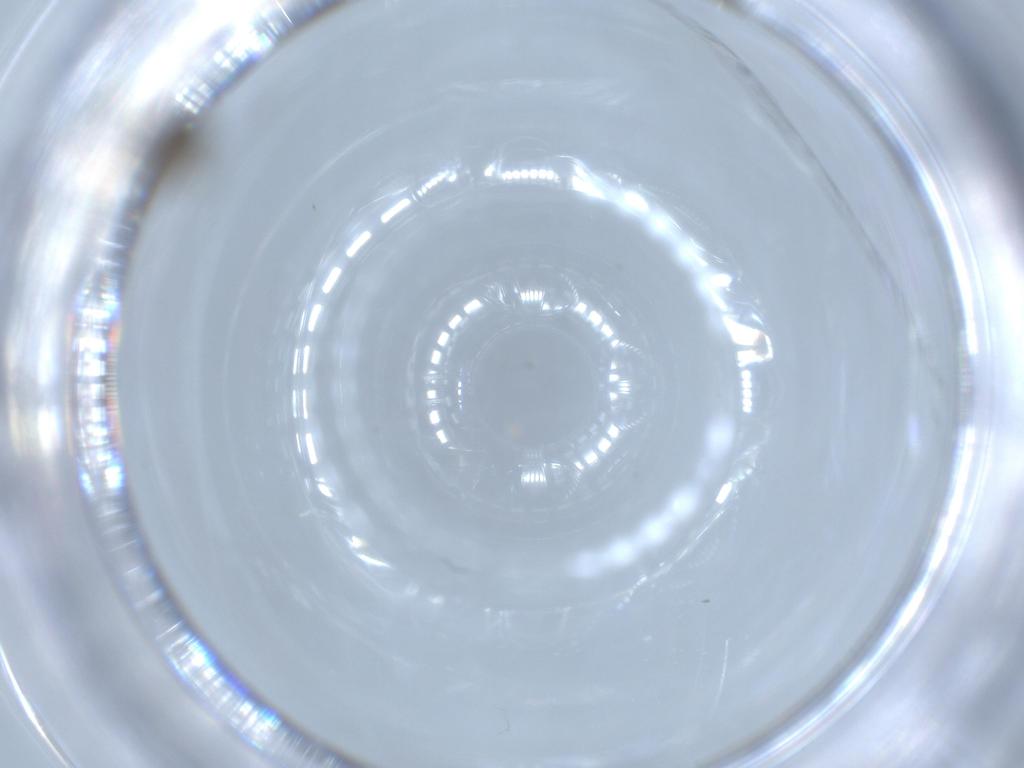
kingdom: Animalia
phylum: Arthropoda
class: Insecta
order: Diptera
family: Chironomidae
